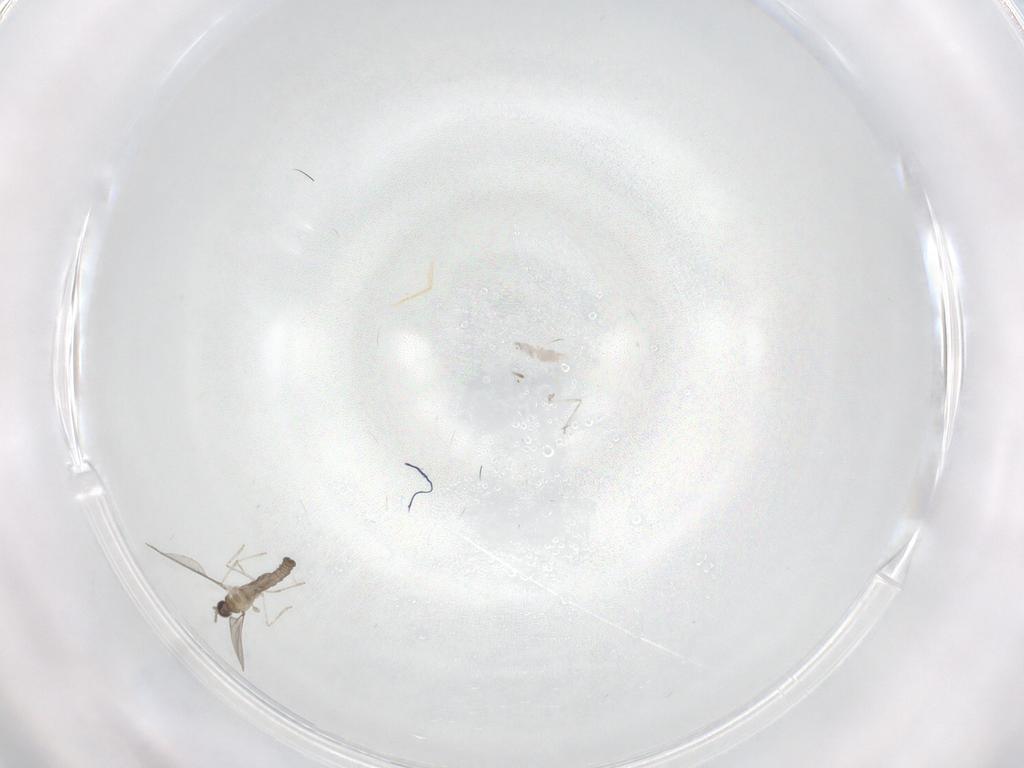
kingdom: Animalia
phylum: Arthropoda
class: Insecta
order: Diptera
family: Cecidomyiidae
